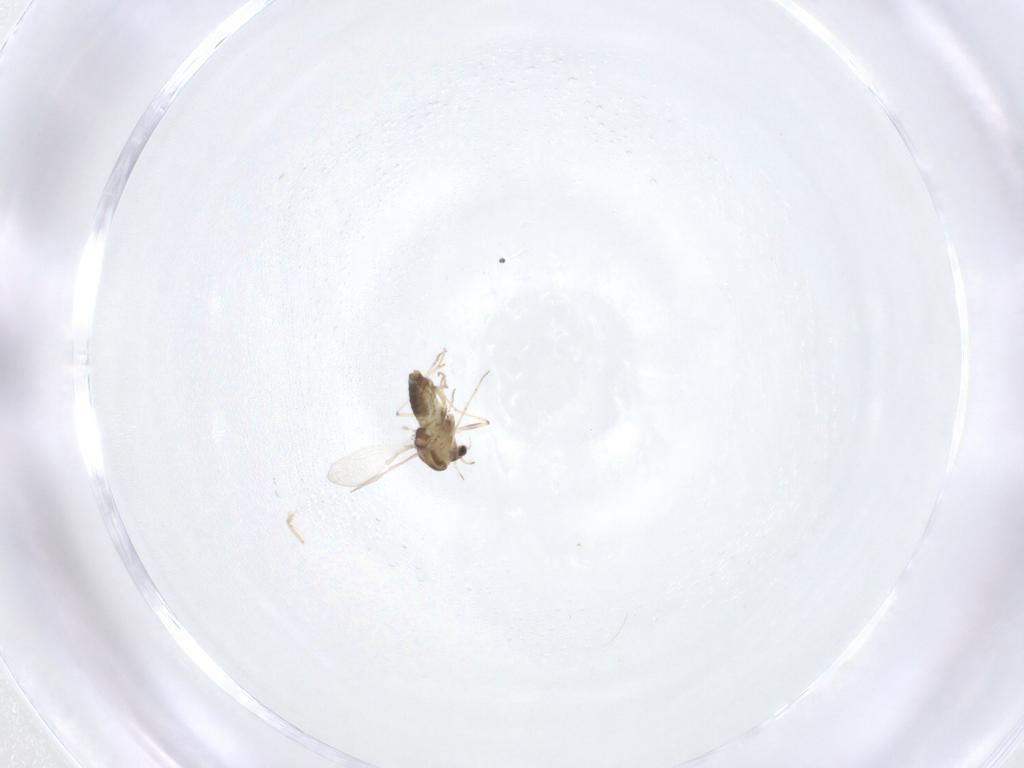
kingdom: Animalia
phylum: Arthropoda
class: Insecta
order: Diptera
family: Chironomidae
